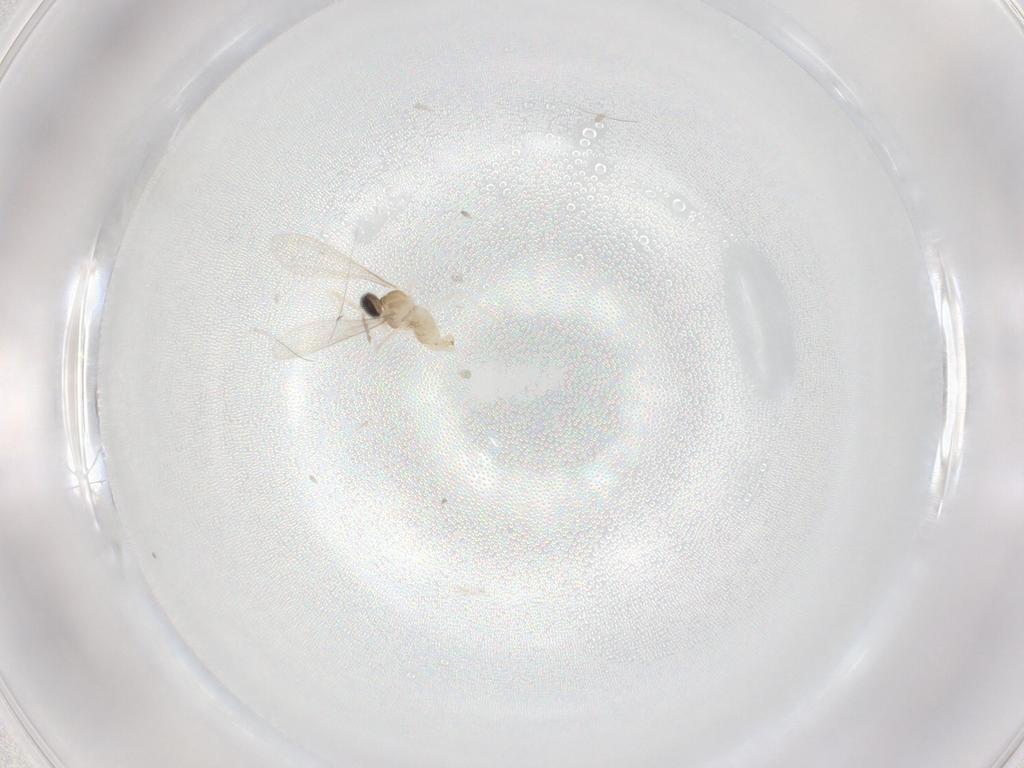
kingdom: Animalia
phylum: Arthropoda
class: Insecta
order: Diptera
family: Cecidomyiidae
